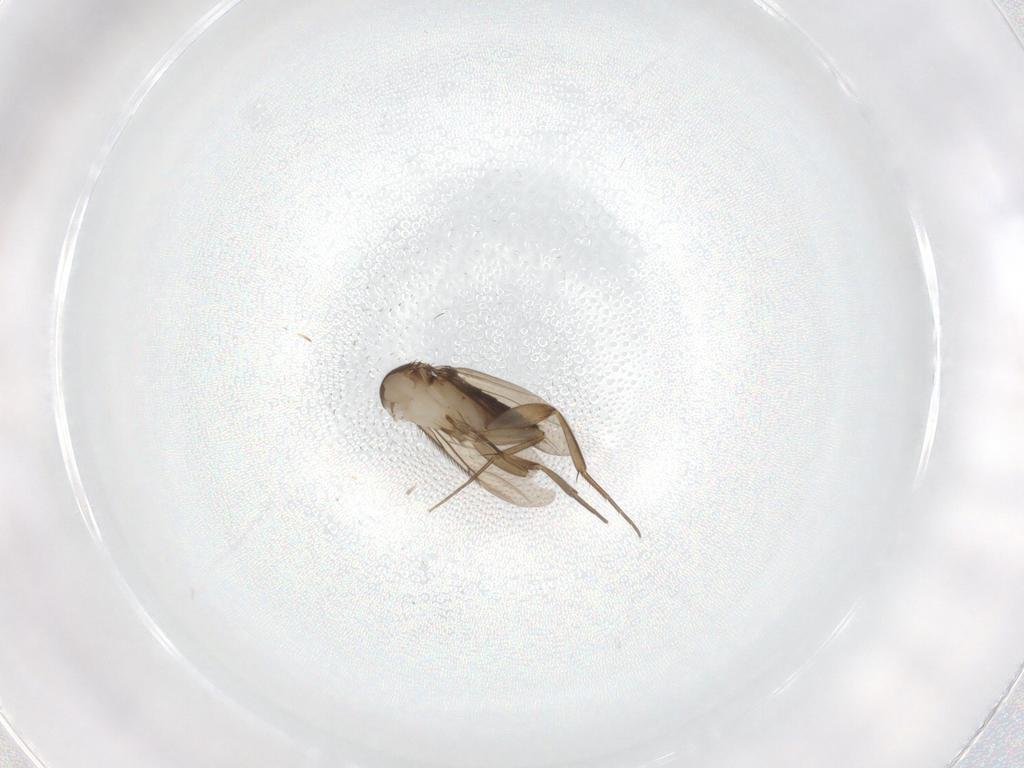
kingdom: Animalia
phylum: Arthropoda
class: Insecta
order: Diptera
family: Phoridae
